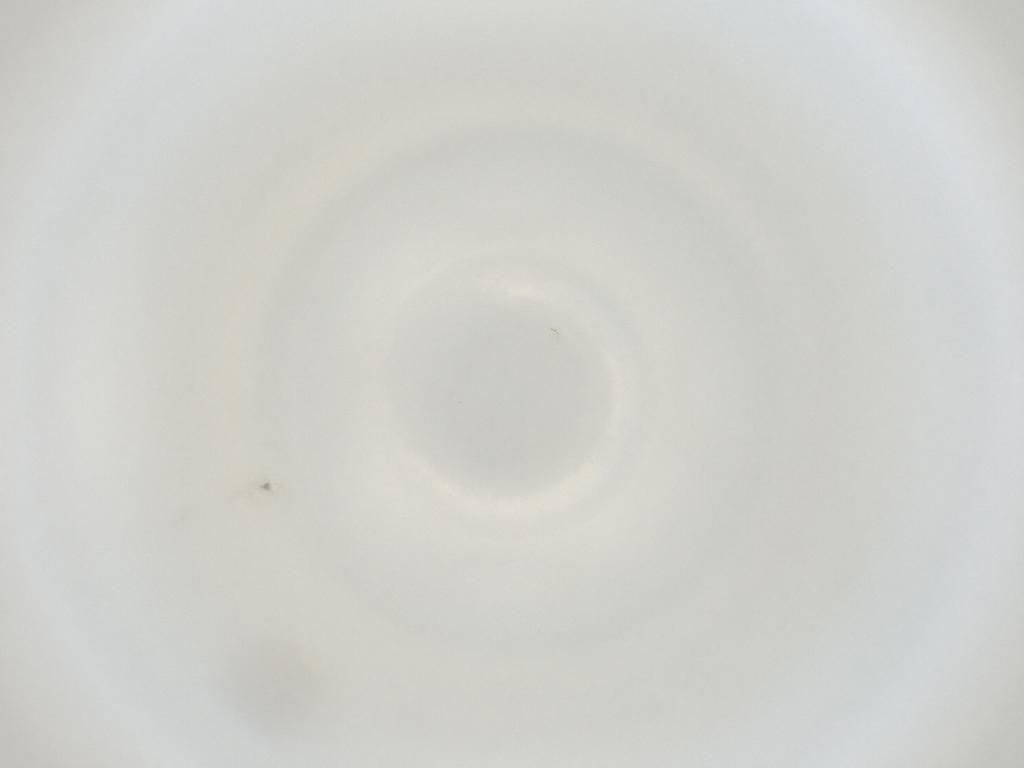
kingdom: Animalia
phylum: Arthropoda
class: Insecta
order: Diptera
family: Cecidomyiidae
